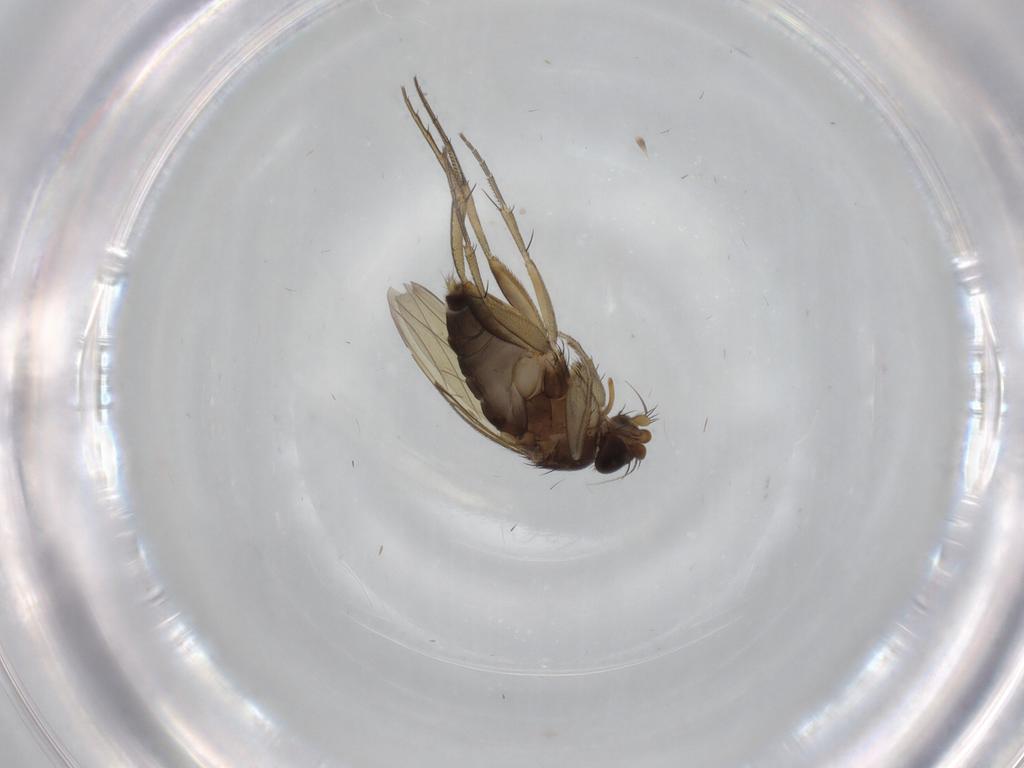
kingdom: Animalia
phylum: Arthropoda
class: Insecta
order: Diptera
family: Phoridae
